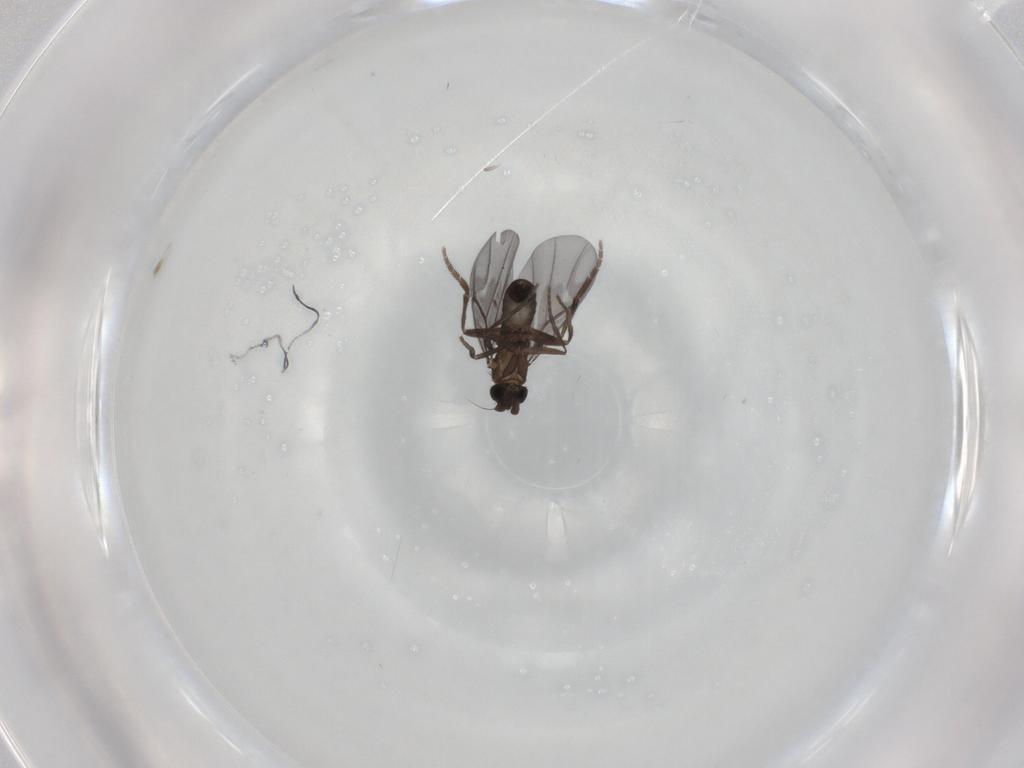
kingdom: Animalia
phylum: Arthropoda
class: Insecta
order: Diptera
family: Phoridae
